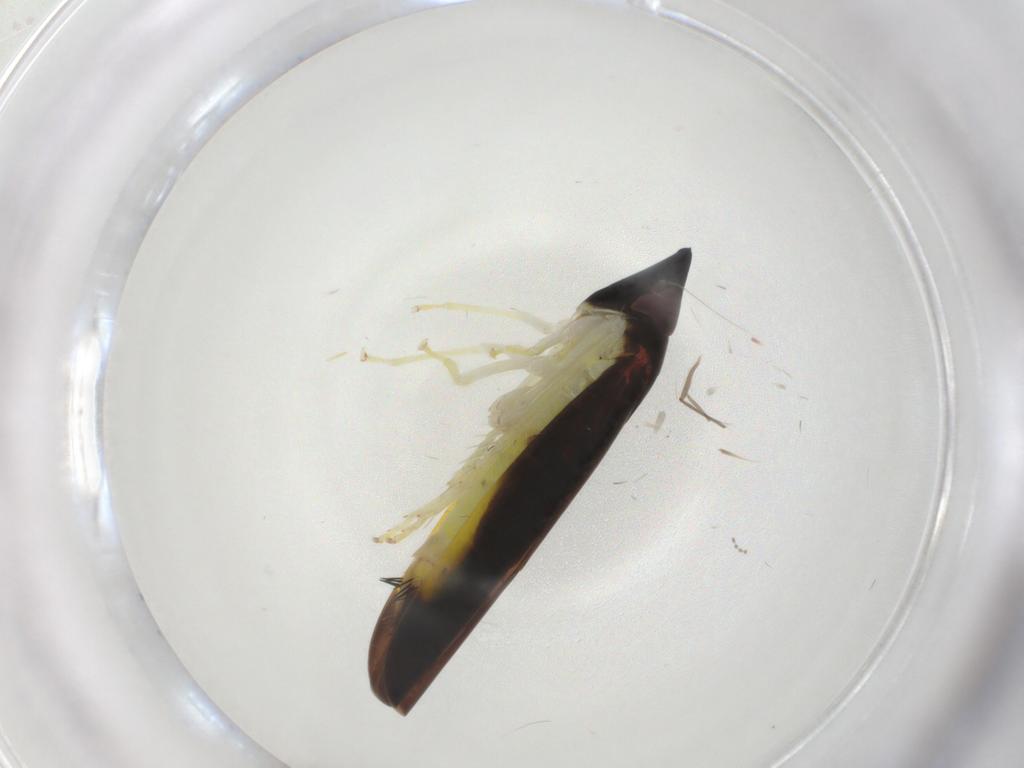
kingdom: Animalia
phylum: Arthropoda
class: Insecta
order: Hemiptera
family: Cicadellidae
